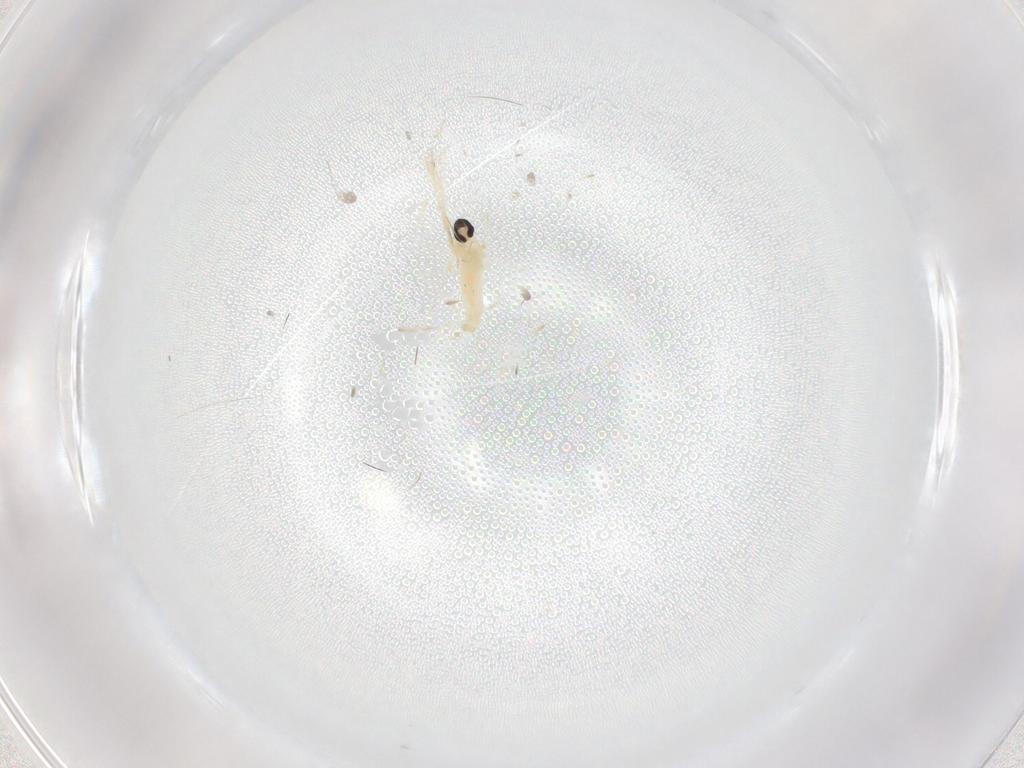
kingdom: Animalia
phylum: Arthropoda
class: Insecta
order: Diptera
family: Cecidomyiidae
